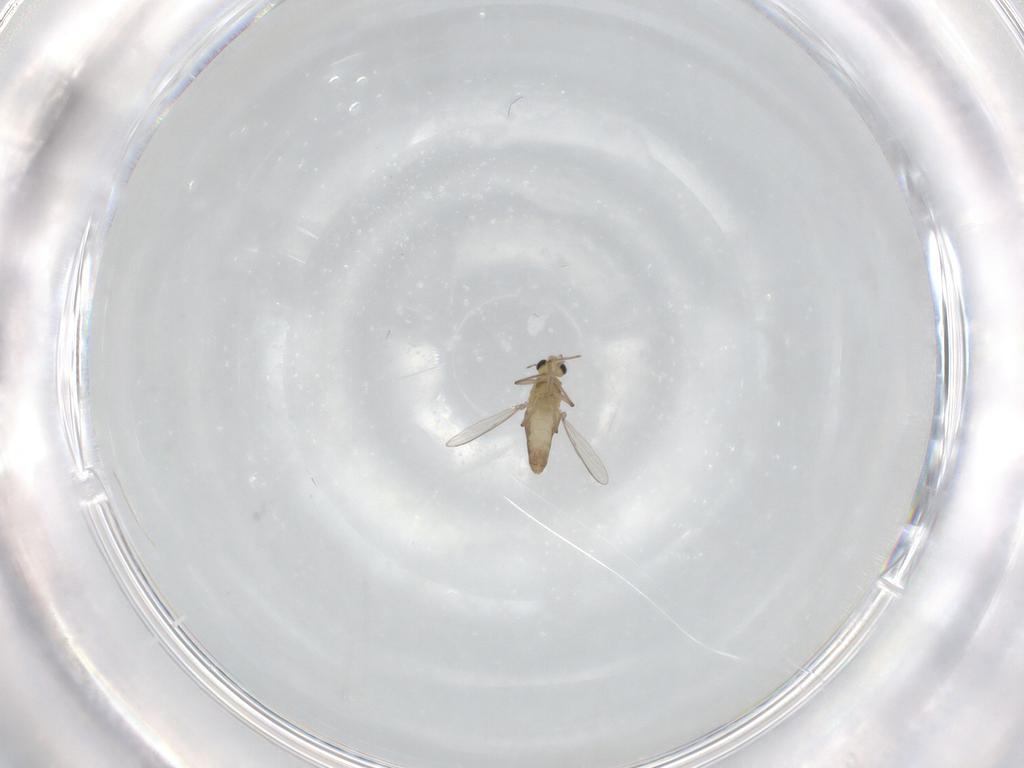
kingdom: Animalia
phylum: Arthropoda
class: Insecta
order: Diptera
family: Chironomidae
